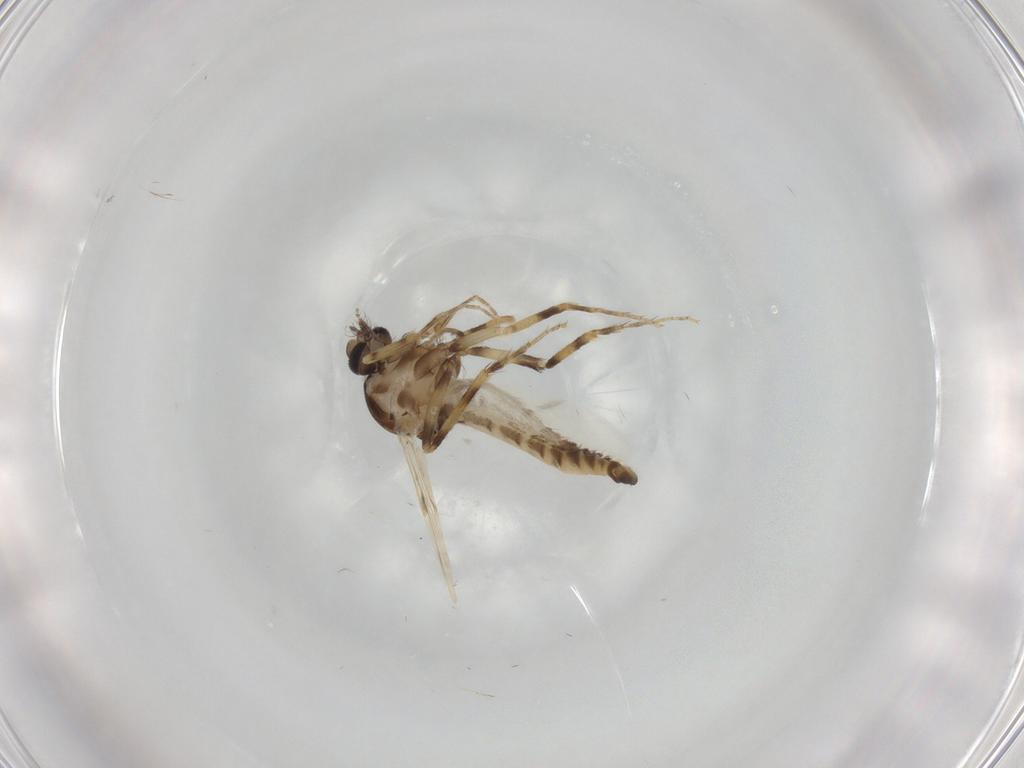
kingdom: Animalia
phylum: Arthropoda
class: Insecta
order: Diptera
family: Ceratopogonidae
